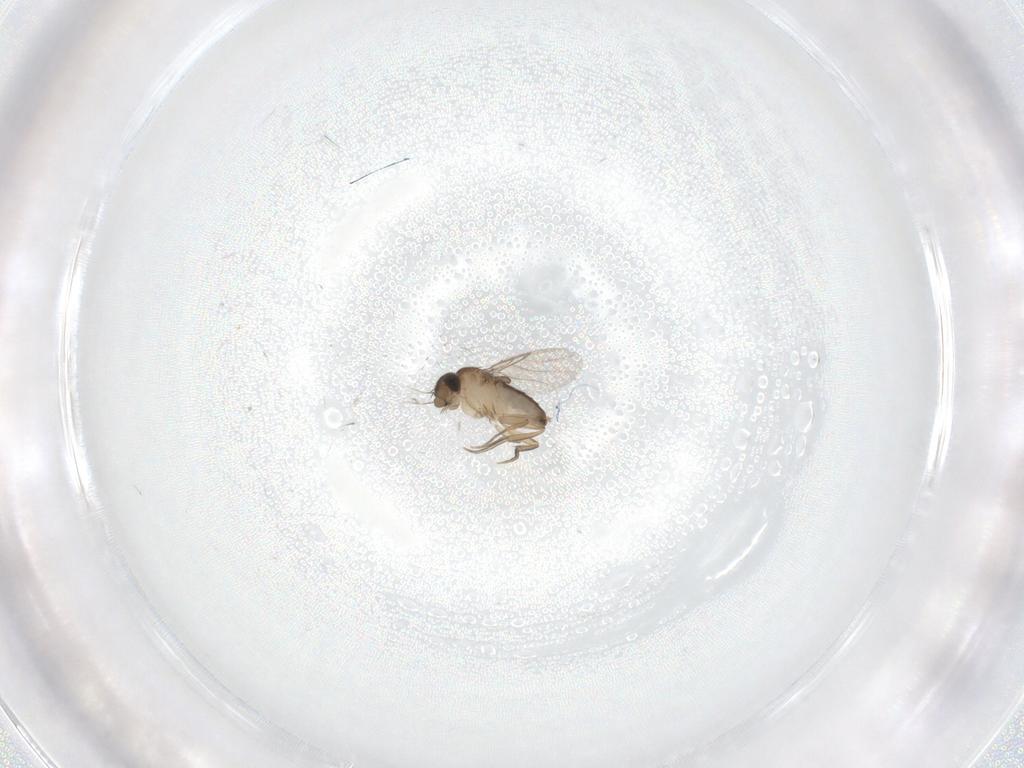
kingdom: Animalia
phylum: Arthropoda
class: Insecta
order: Diptera
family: Phoridae
